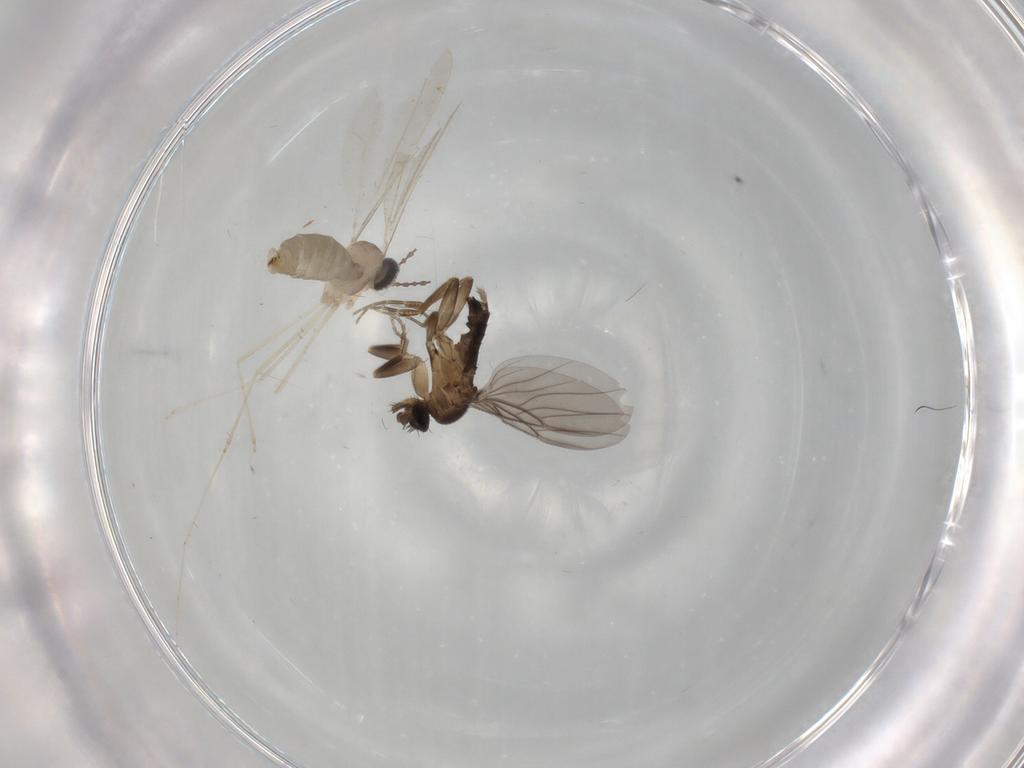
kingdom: Animalia
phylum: Arthropoda
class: Insecta
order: Diptera
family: Cecidomyiidae
